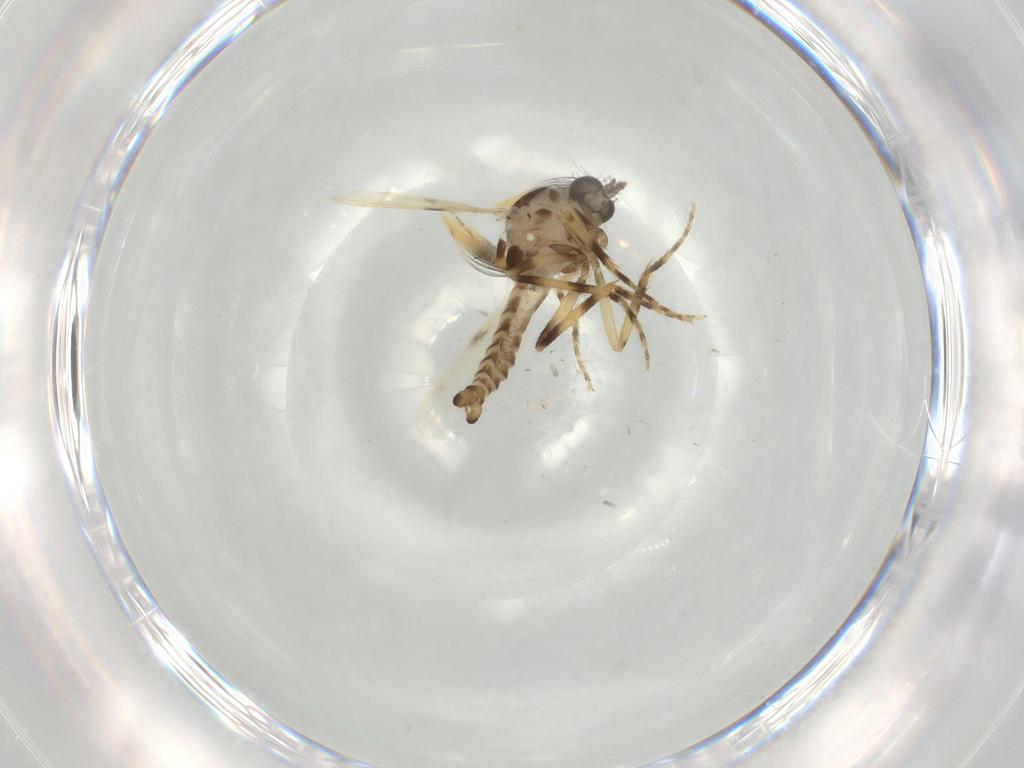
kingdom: Animalia
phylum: Arthropoda
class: Insecta
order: Diptera
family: Ceratopogonidae
